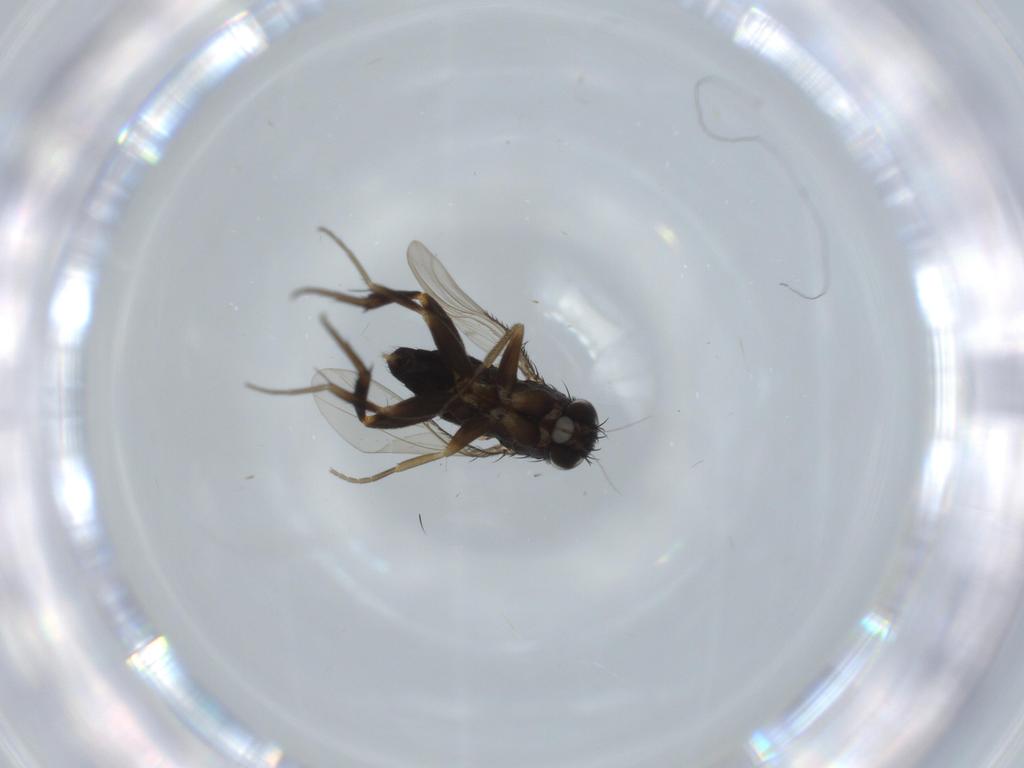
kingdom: Animalia
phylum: Arthropoda
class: Insecta
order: Diptera
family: Phoridae
